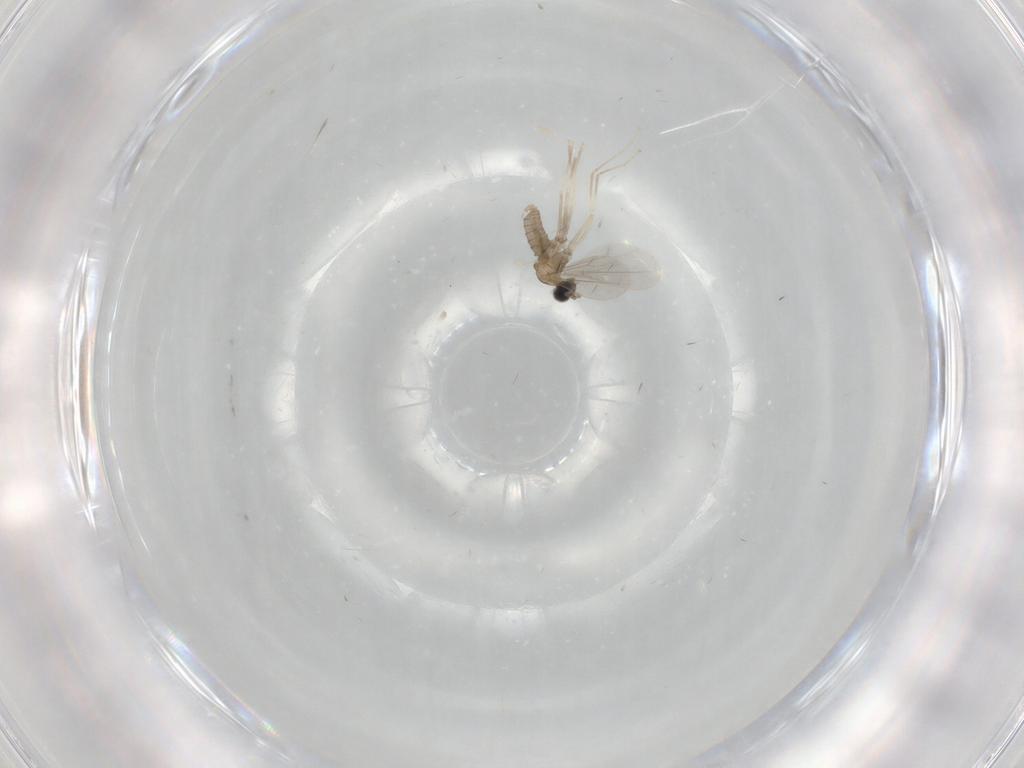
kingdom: Animalia
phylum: Arthropoda
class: Insecta
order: Diptera
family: Cecidomyiidae
